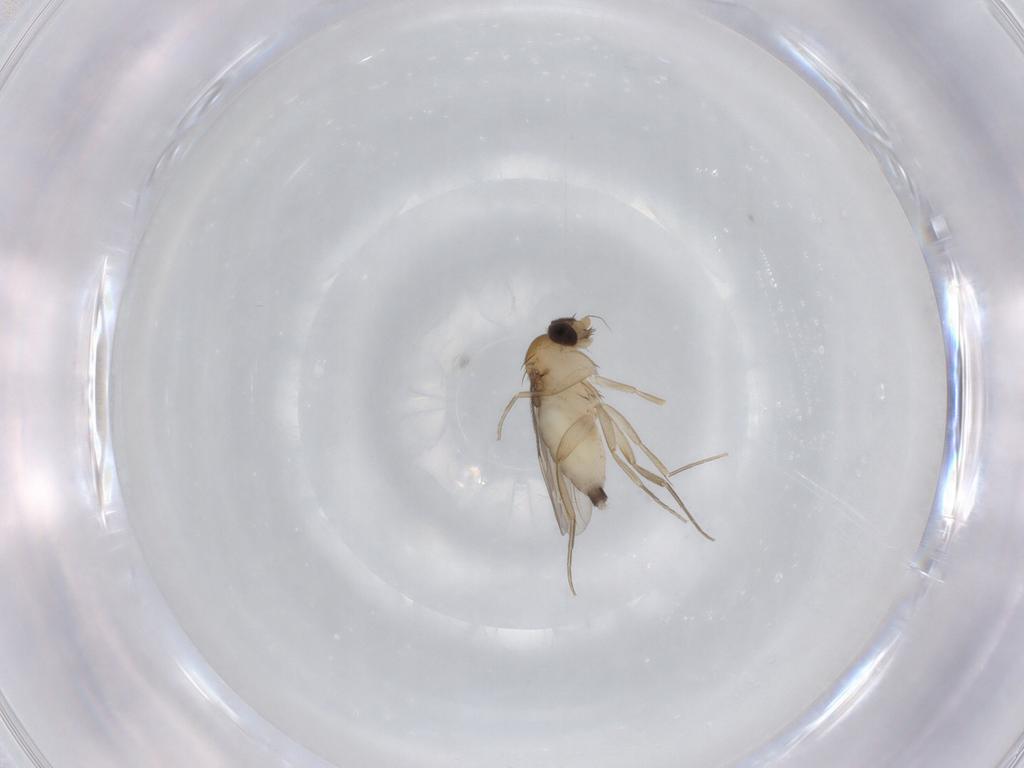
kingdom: Animalia
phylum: Arthropoda
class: Insecta
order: Diptera
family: Phoridae
